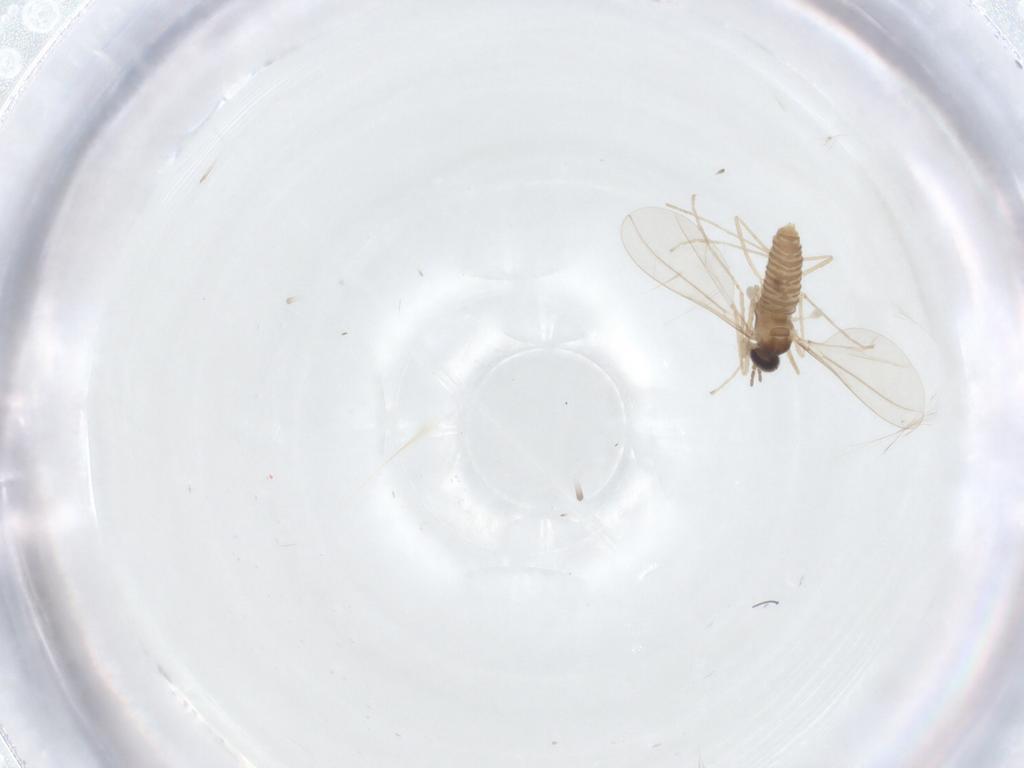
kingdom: Animalia
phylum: Arthropoda
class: Insecta
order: Diptera
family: Cecidomyiidae
